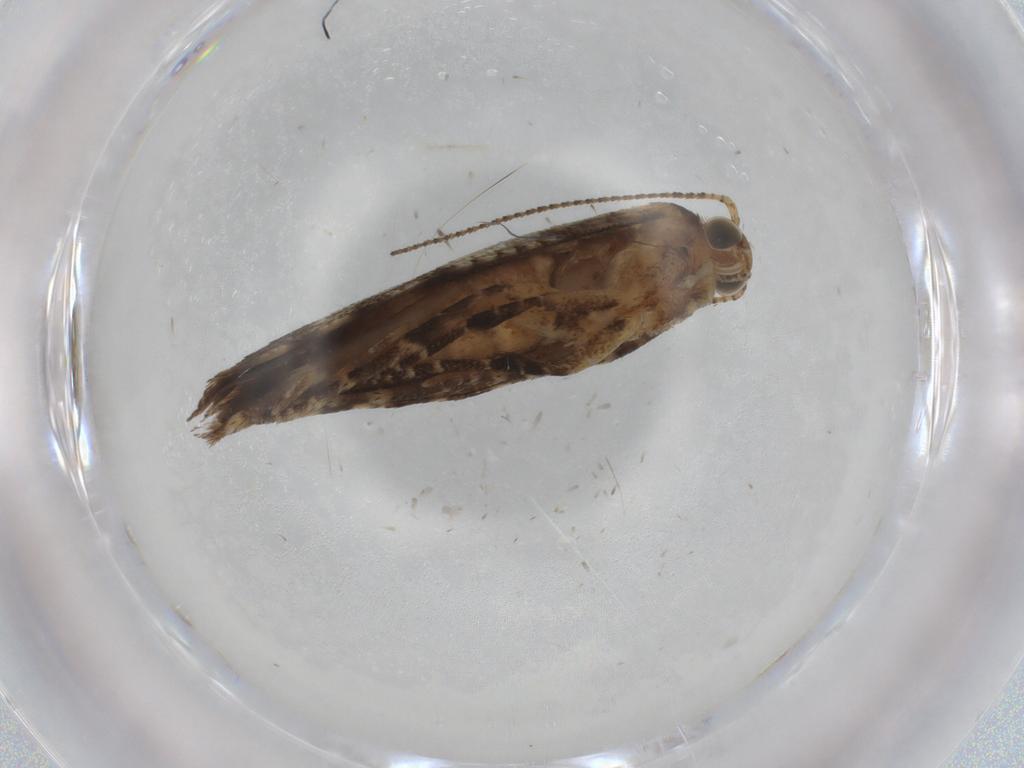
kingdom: Animalia
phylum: Arthropoda
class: Insecta
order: Lepidoptera
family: Crambidae
